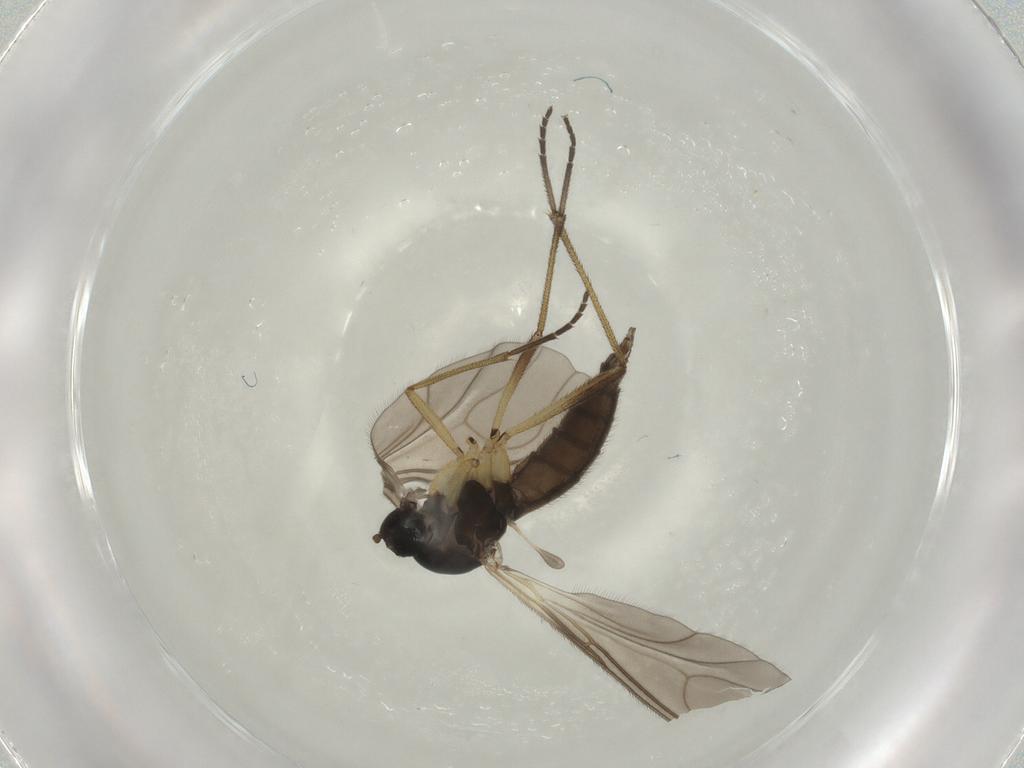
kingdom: Animalia
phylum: Arthropoda
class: Insecta
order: Diptera
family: Sciaridae
